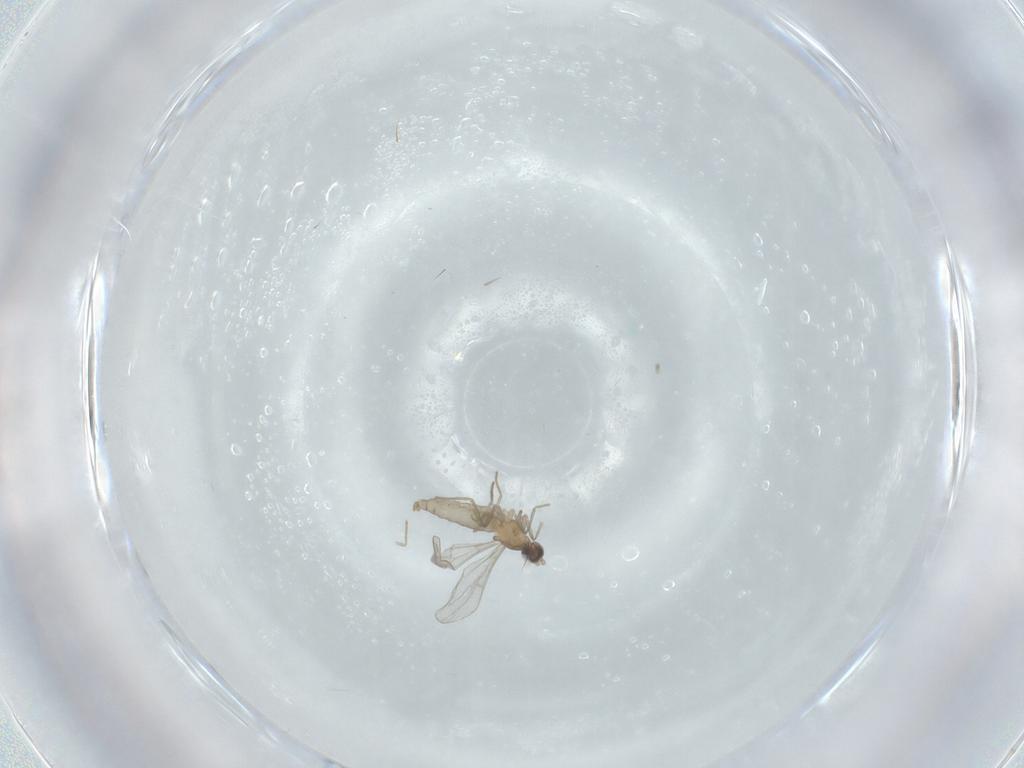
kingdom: Animalia
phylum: Arthropoda
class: Insecta
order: Diptera
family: Cecidomyiidae
